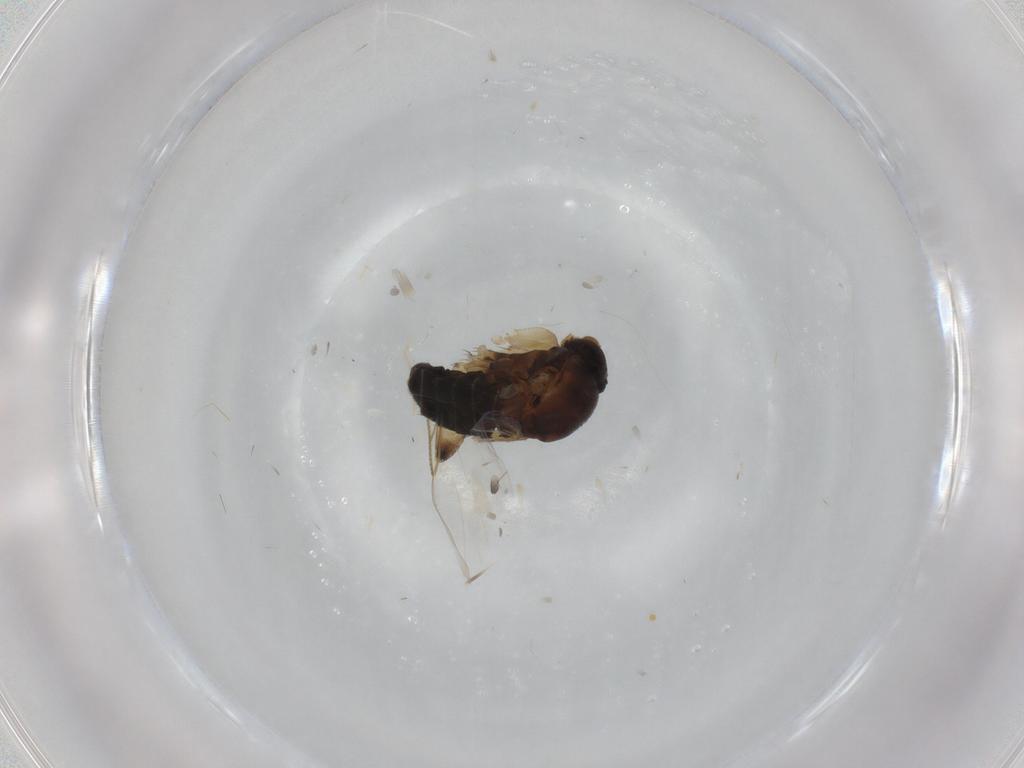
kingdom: Animalia
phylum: Arthropoda
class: Insecta
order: Diptera
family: Phoridae
